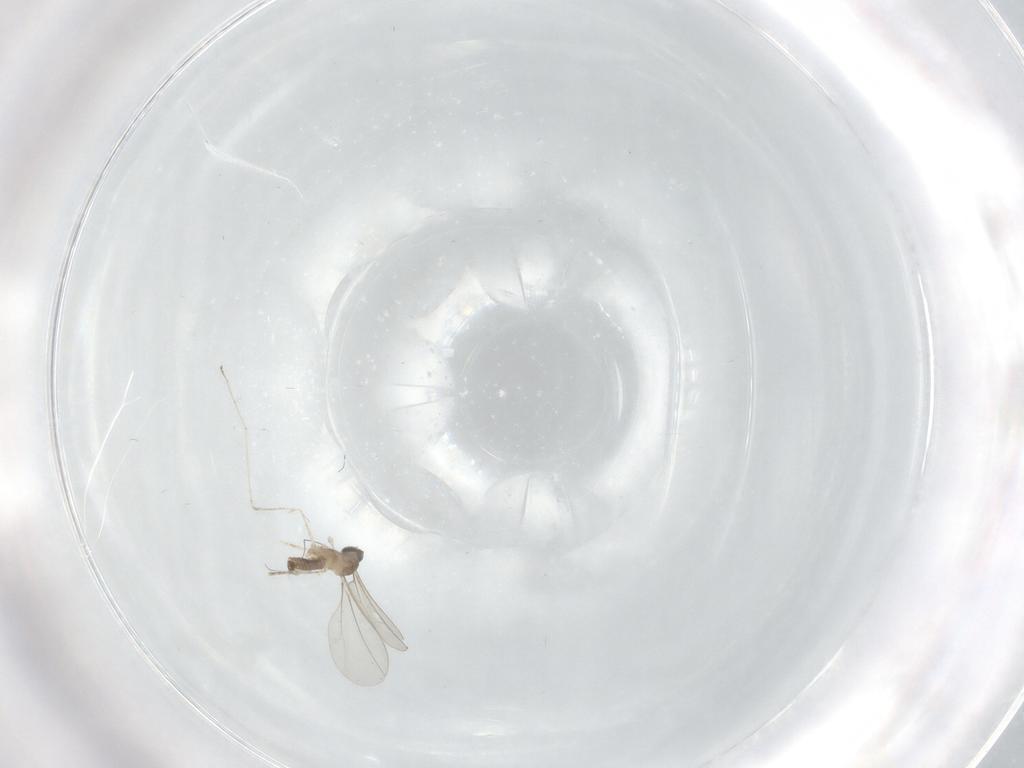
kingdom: Animalia
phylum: Arthropoda
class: Insecta
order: Diptera
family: Cecidomyiidae
